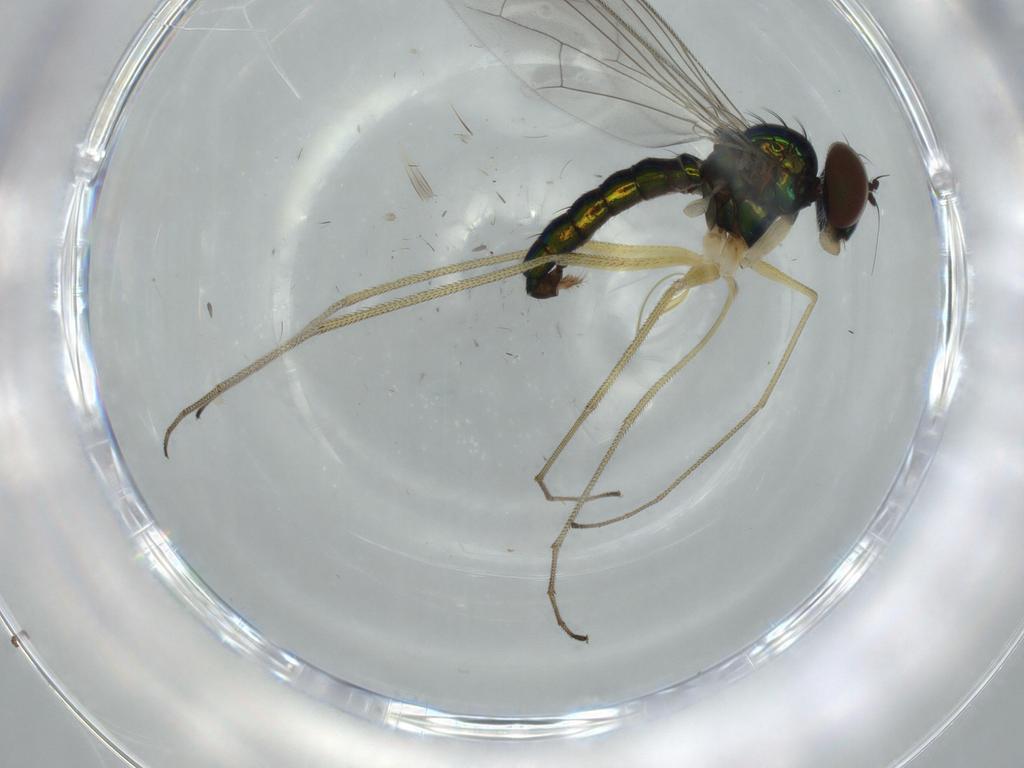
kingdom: Animalia
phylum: Arthropoda
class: Insecta
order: Diptera
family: Dolichopodidae
